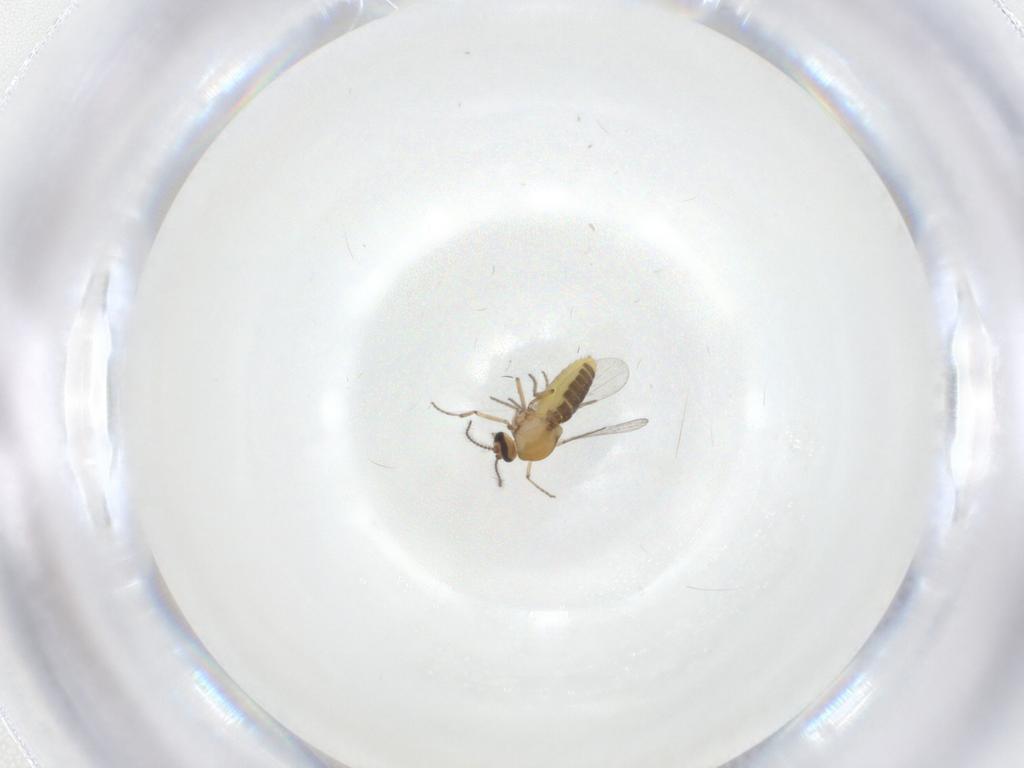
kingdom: Animalia
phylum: Arthropoda
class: Insecta
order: Diptera
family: Ceratopogonidae
